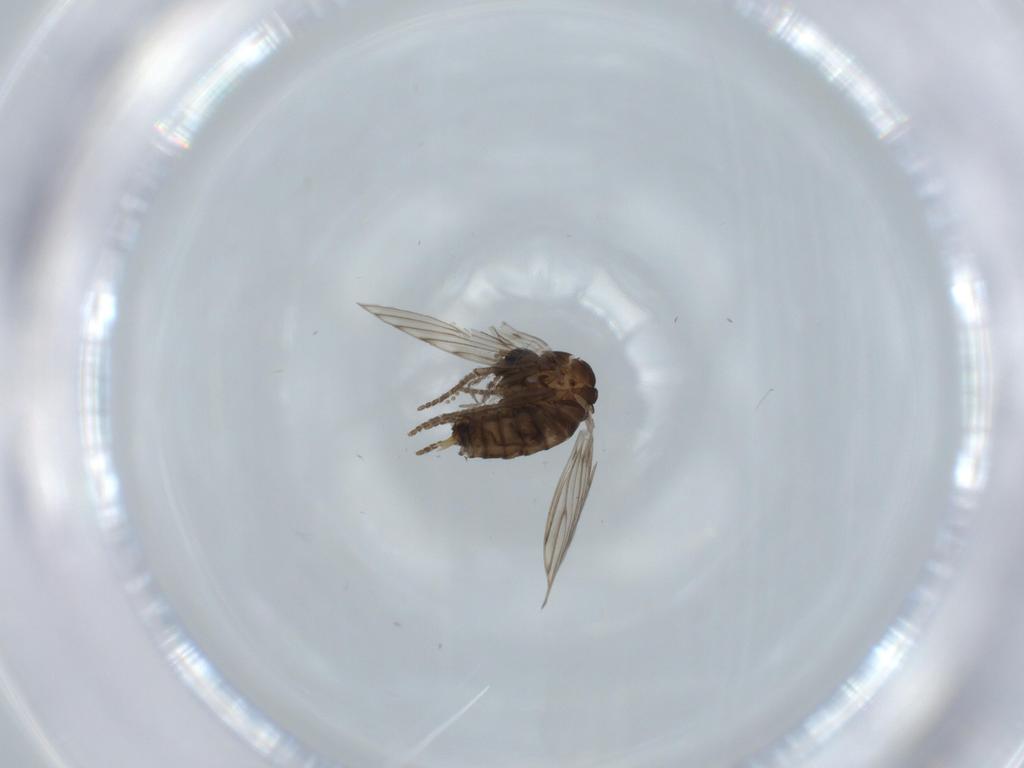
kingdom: Animalia
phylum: Arthropoda
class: Insecta
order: Diptera
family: Psychodidae
